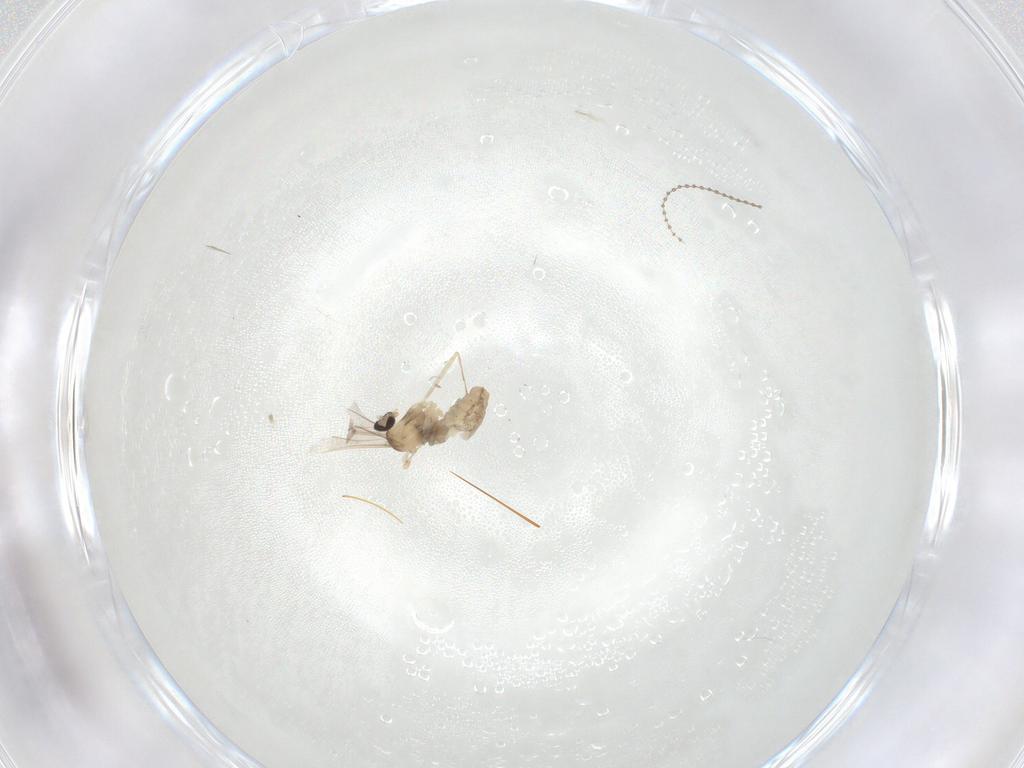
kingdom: Animalia
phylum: Arthropoda
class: Insecta
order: Diptera
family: Cecidomyiidae
